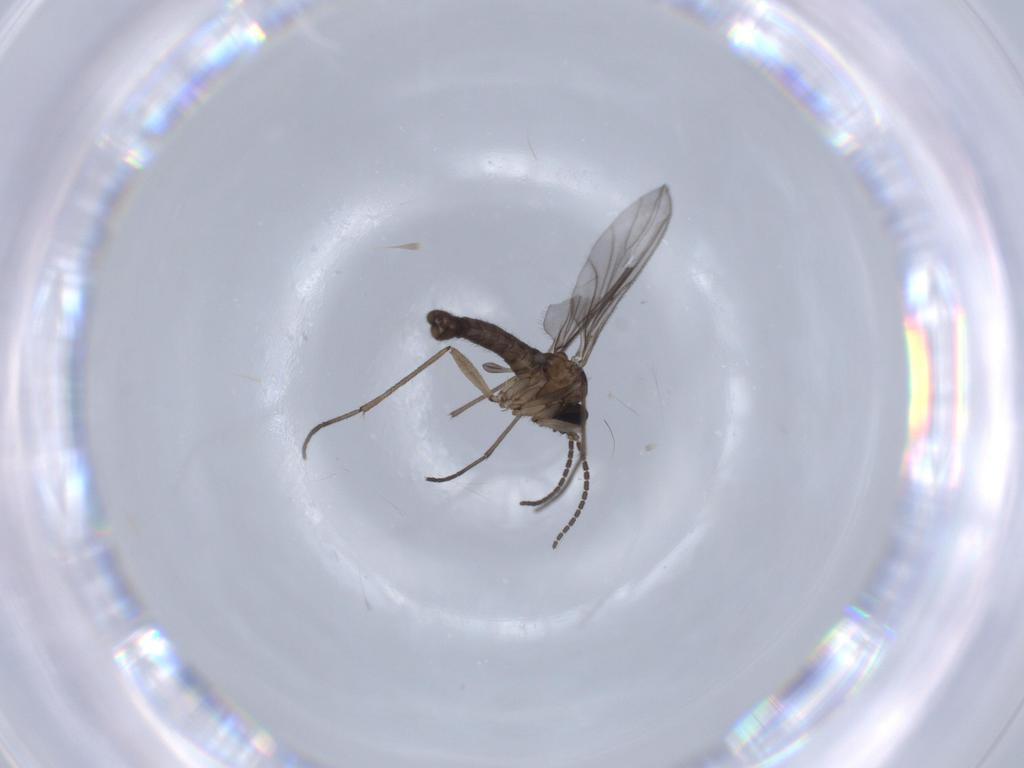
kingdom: Animalia
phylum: Arthropoda
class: Insecta
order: Diptera
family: Sciaridae
